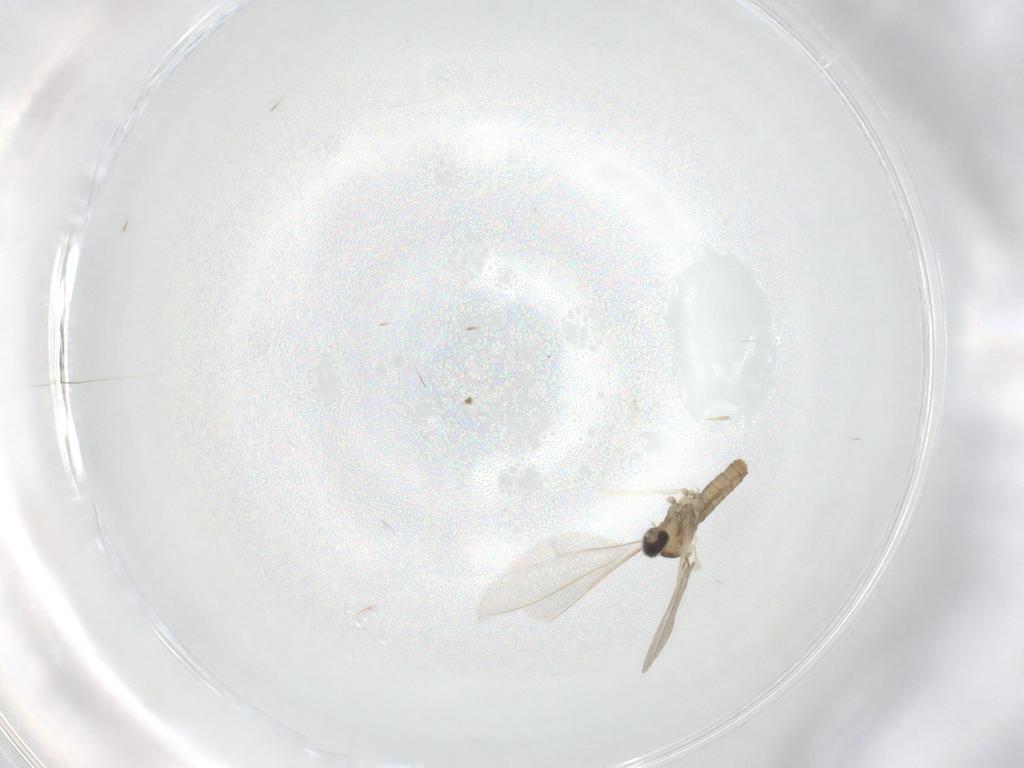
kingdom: Animalia
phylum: Arthropoda
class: Insecta
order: Diptera
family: Cecidomyiidae
